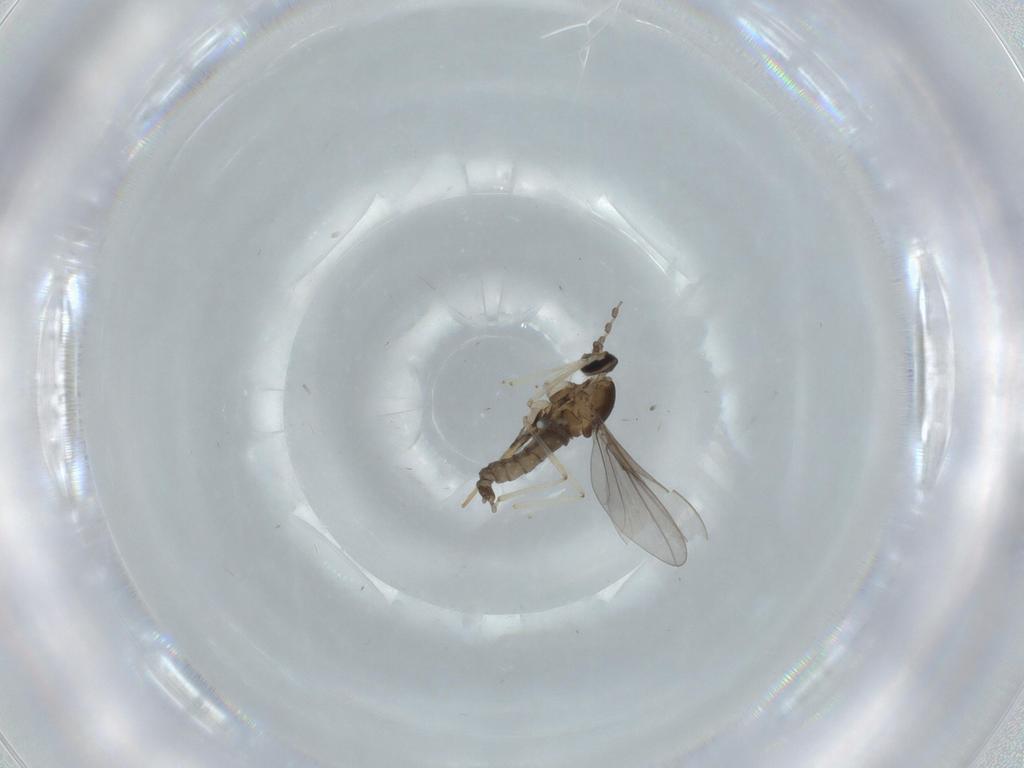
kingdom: Animalia
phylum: Arthropoda
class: Insecta
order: Diptera
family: Cecidomyiidae
